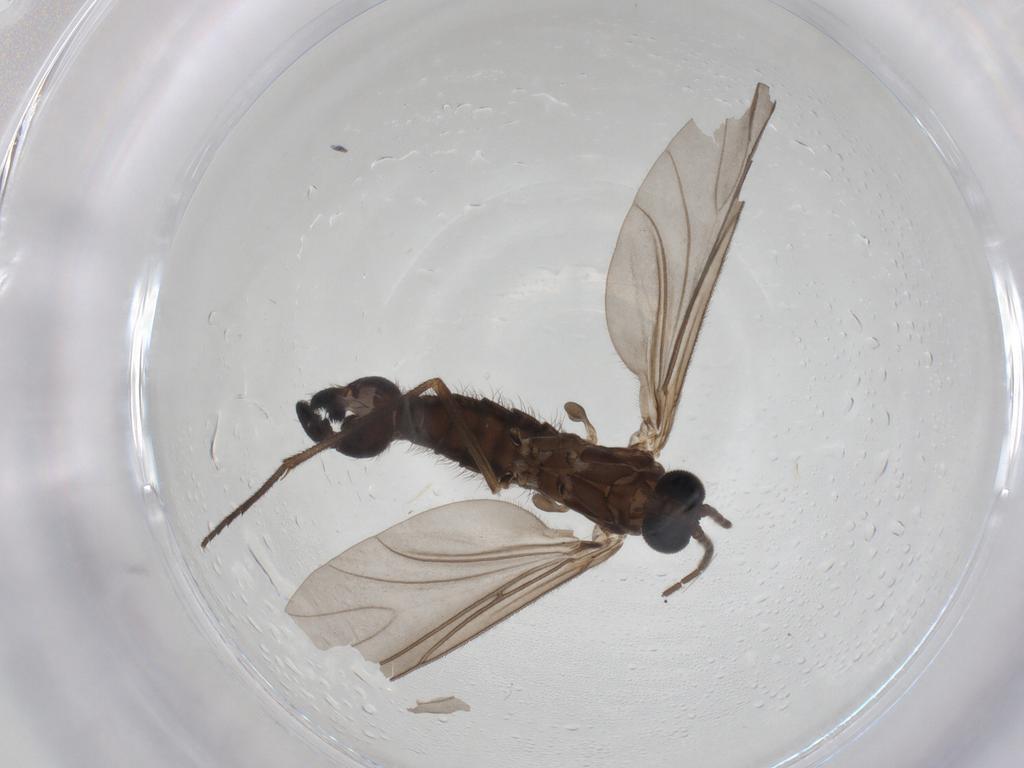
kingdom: Animalia
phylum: Arthropoda
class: Insecta
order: Diptera
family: Sciaridae
